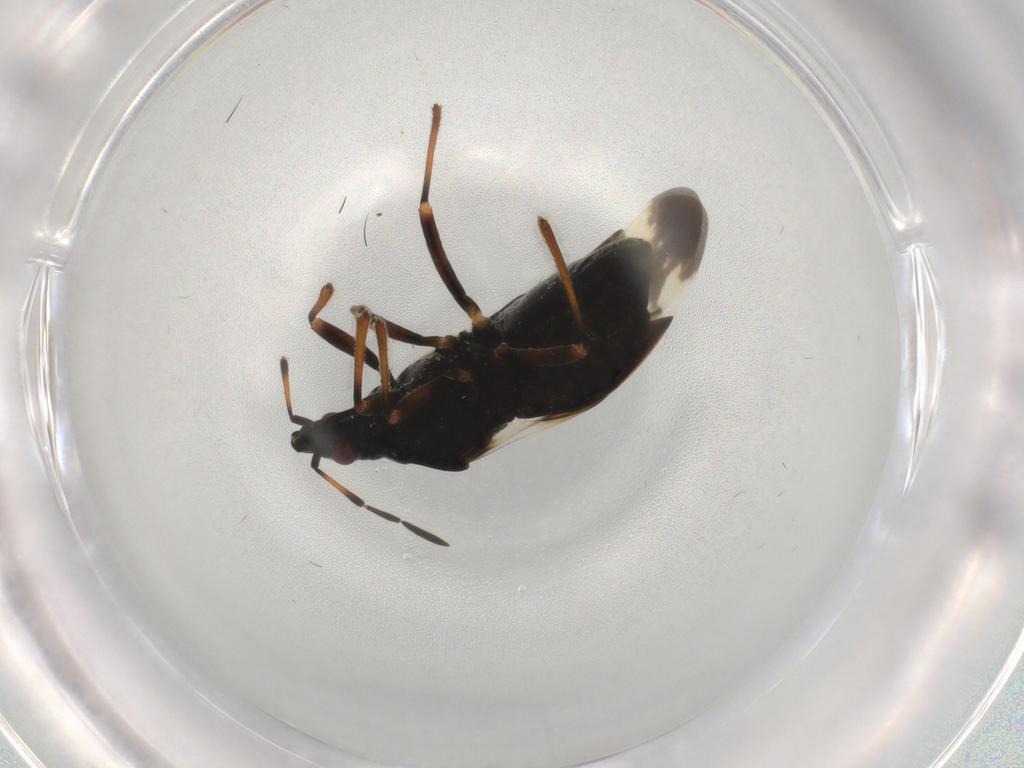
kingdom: Animalia
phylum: Arthropoda
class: Insecta
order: Hemiptera
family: Anthocoridae
